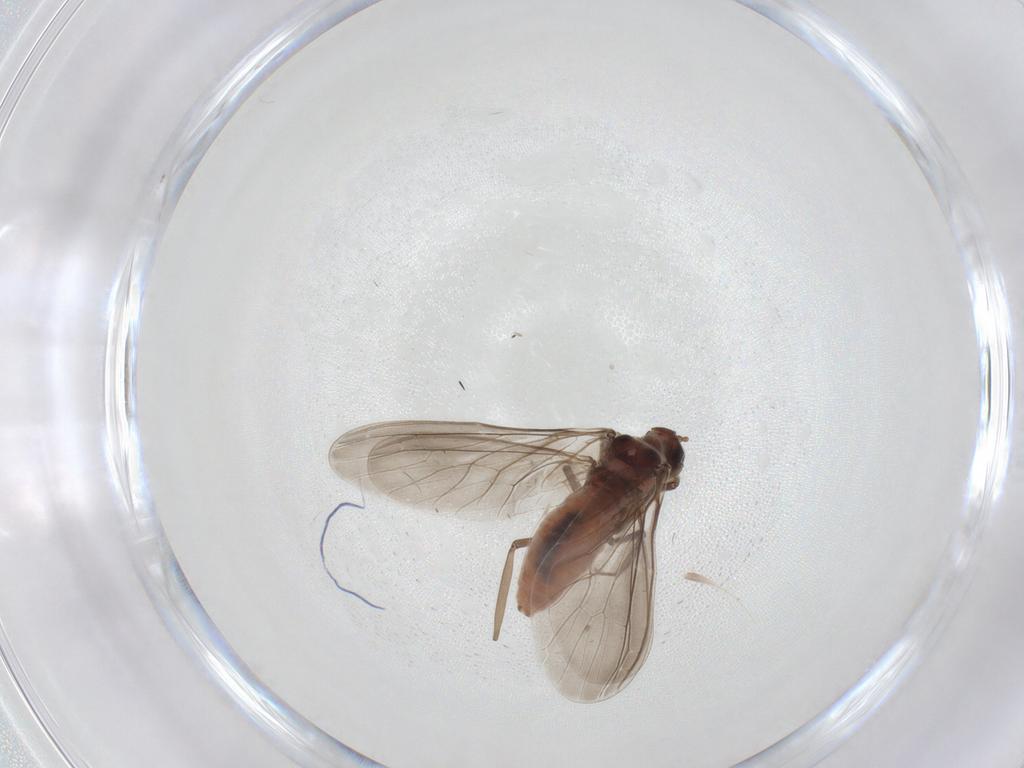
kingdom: Animalia
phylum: Arthropoda
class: Insecta
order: Neuroptera
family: Coniopterygidae
